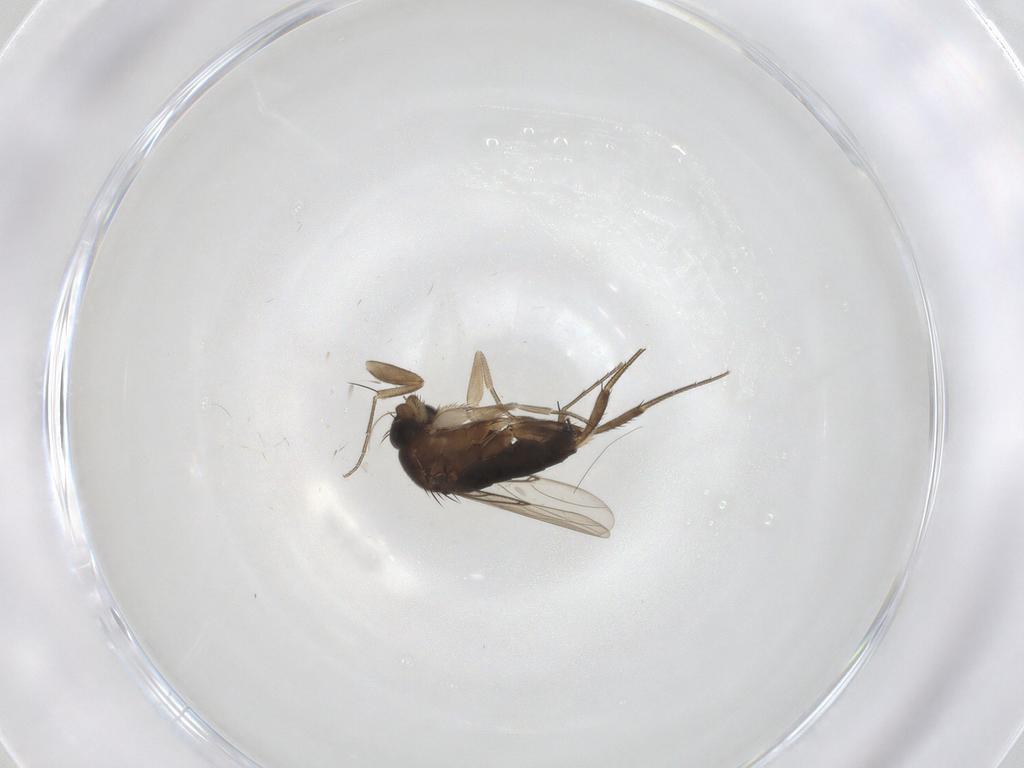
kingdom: Animalia
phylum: Arthropoda
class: Insecta
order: Diptera
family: Phoridae
